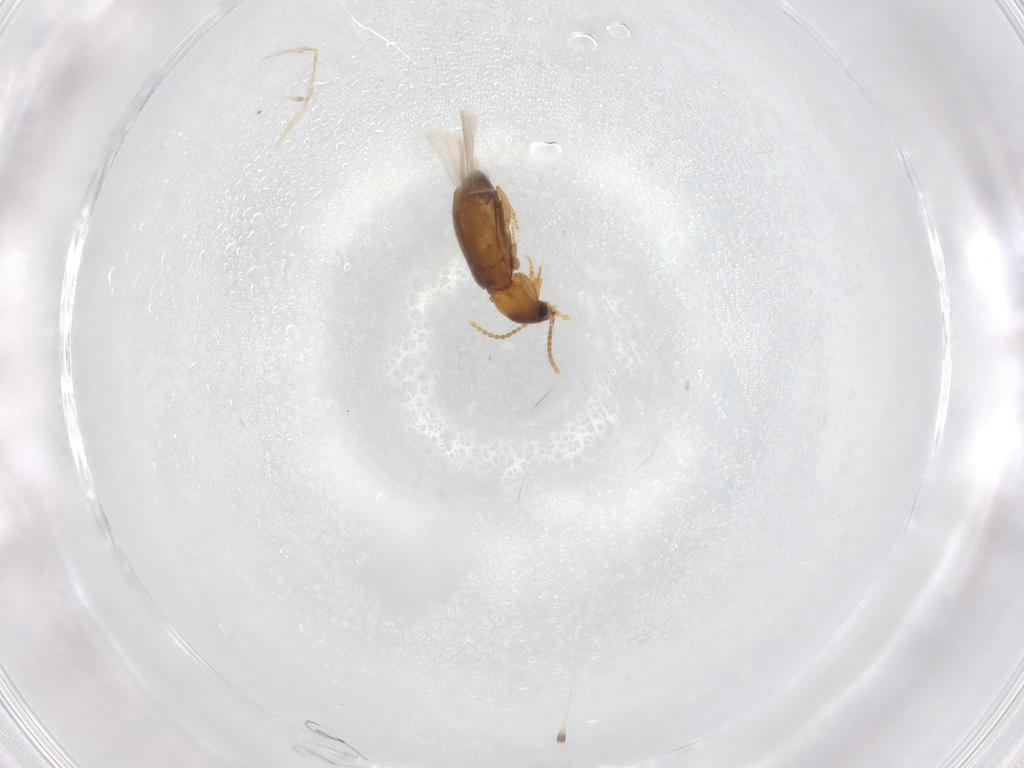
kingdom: Animalia
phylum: Arthropoda
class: Insecta
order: Coleoptera
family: Carabidae
